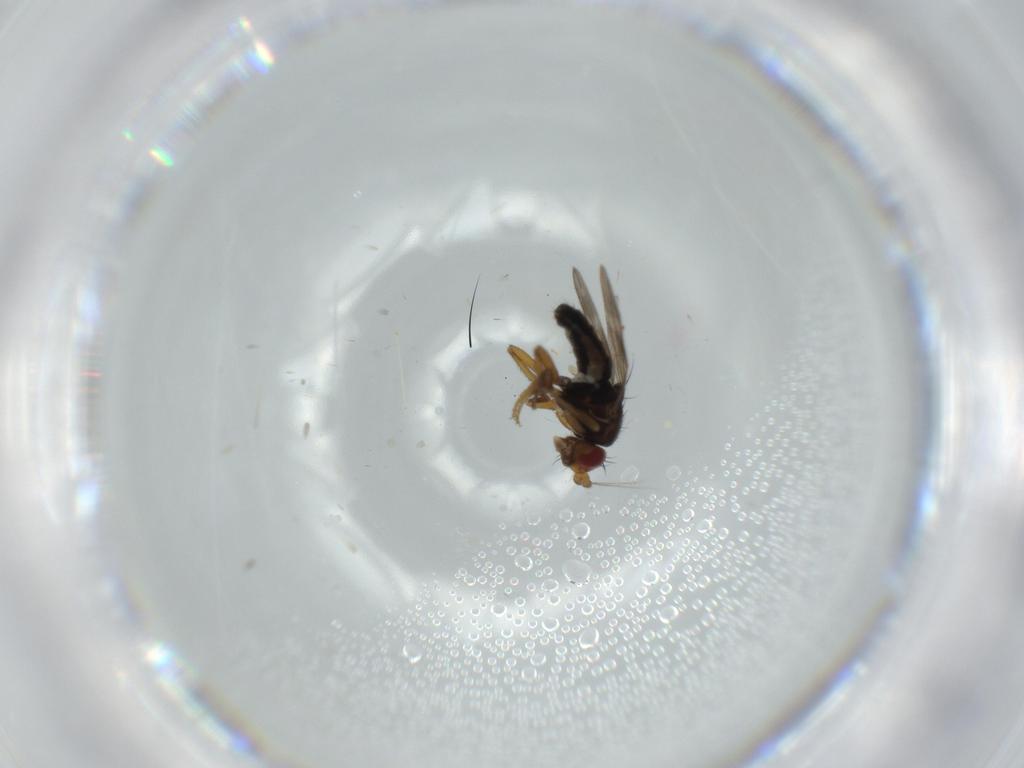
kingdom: Animalia
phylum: Arthropoda
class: Insecta
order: Diptera
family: Sphaeroceridae
